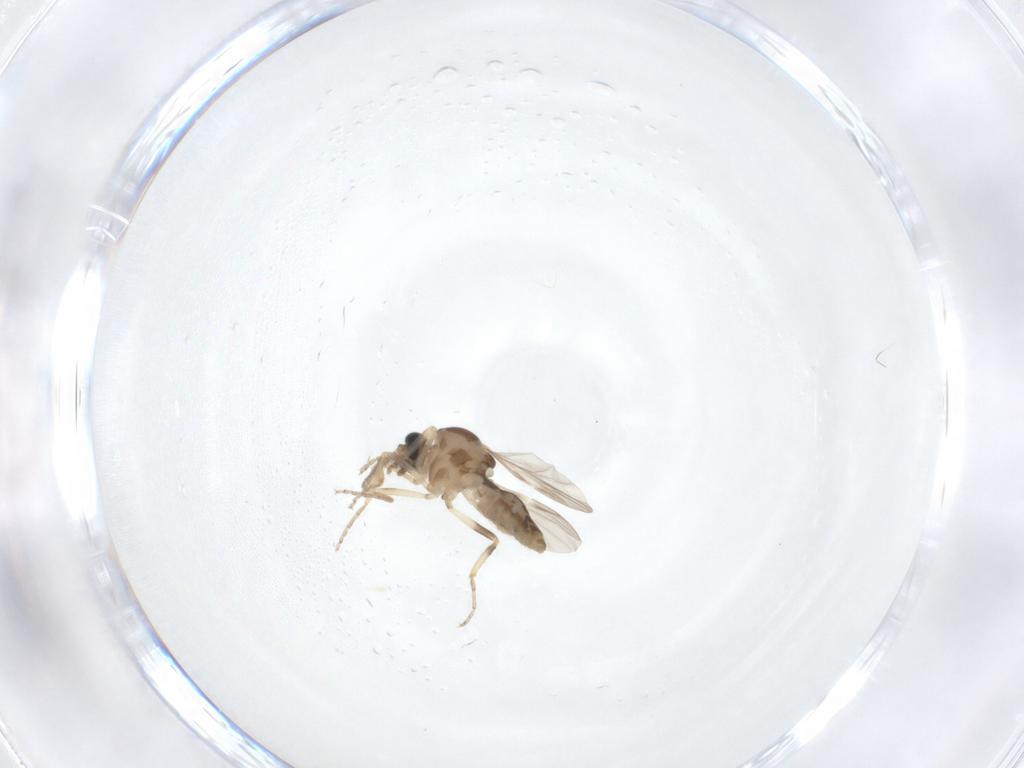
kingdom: Animalia
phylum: Arthropoda
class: Insecta
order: Diptera
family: Ceratopogonidae
